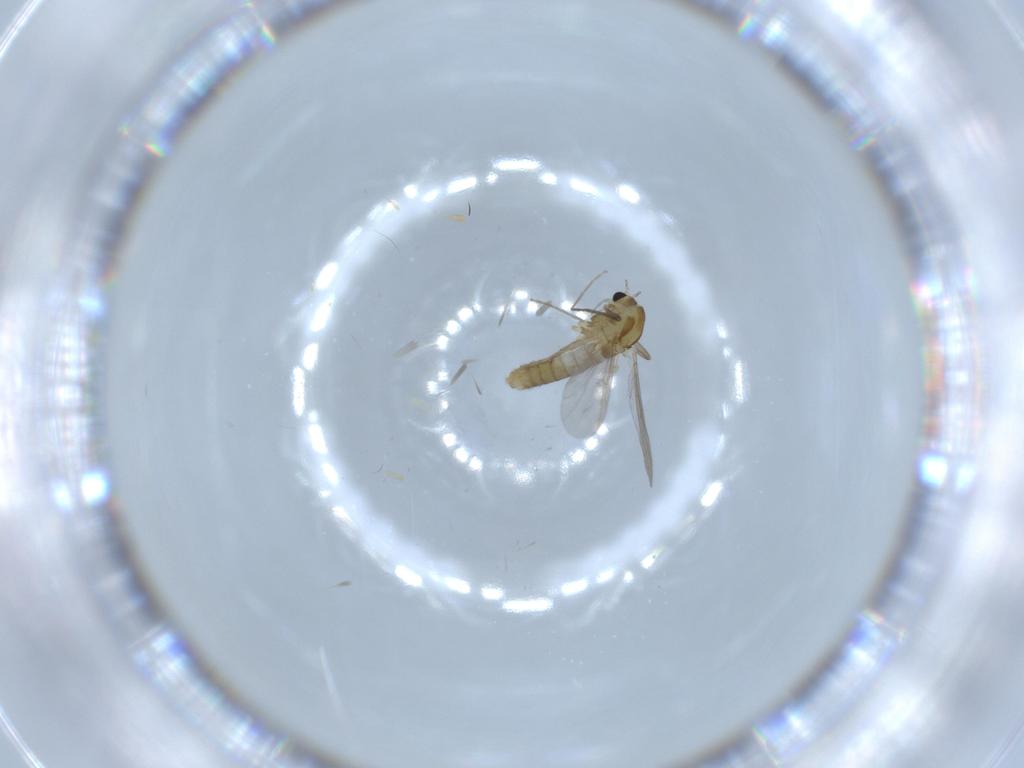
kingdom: Animalia
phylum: Arthropoda
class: Insecta
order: Diptera
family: Chironomidae
